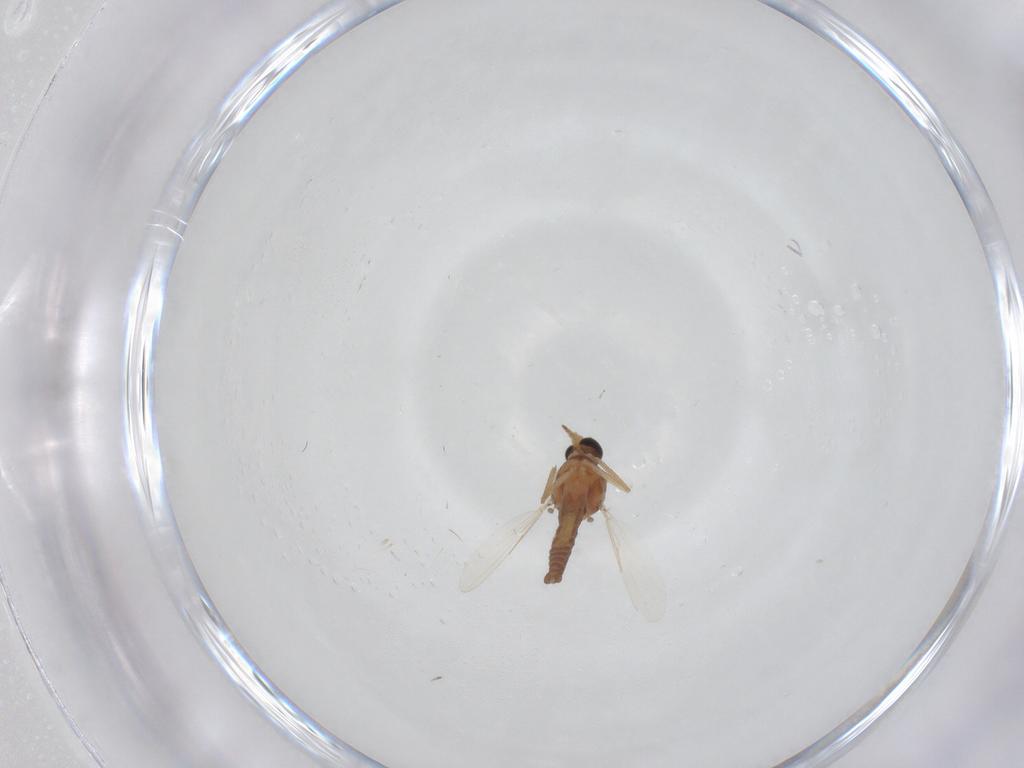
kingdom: Animalia
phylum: Arthropoda
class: Insecta
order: Diptera
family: Ceratopogonidae
